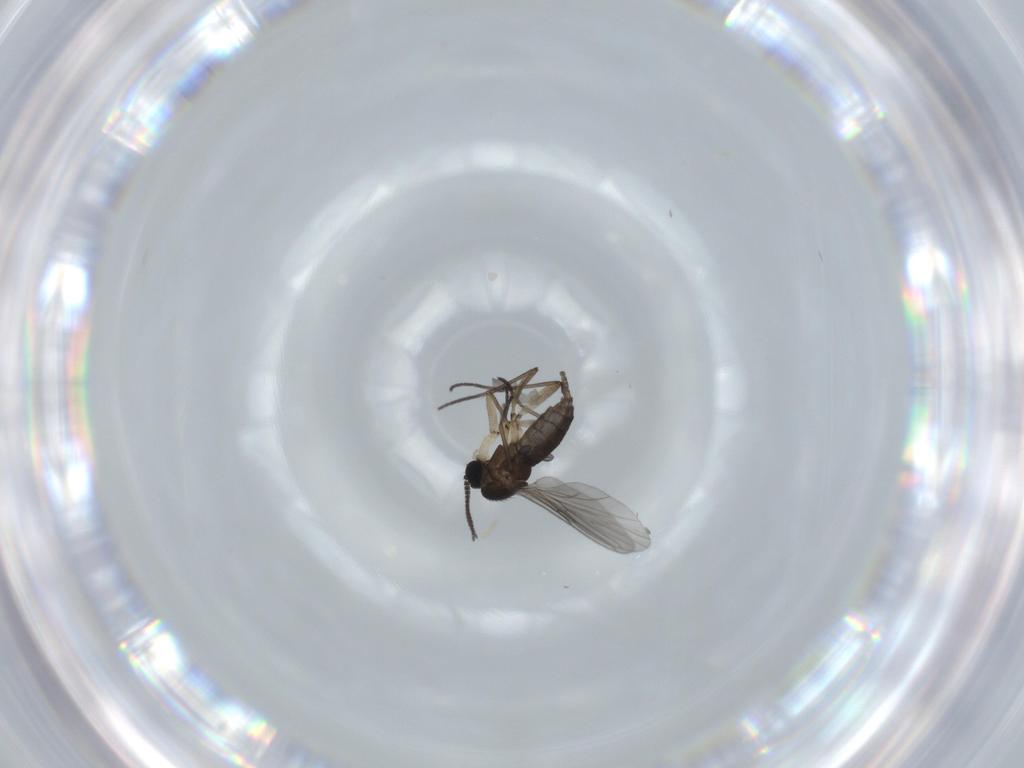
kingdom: Animalia
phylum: Arthropoda
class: Insecta
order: Diptera
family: Sciaridae
